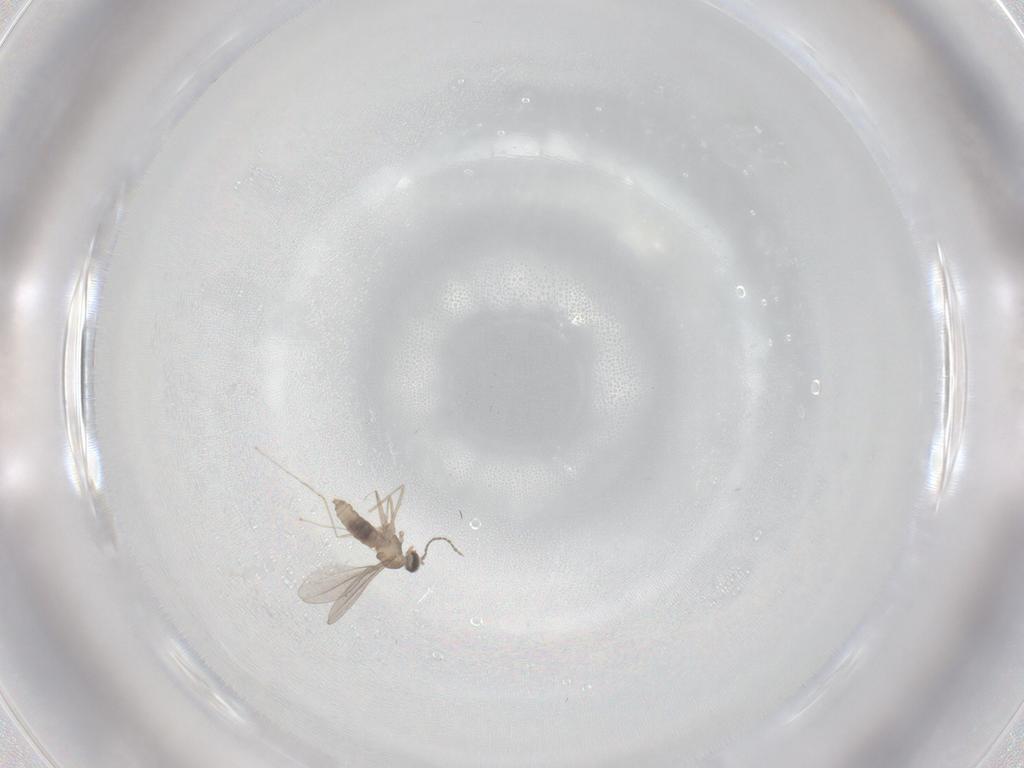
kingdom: Animalia
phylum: Arthropoda
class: Insecta
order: Diptera
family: Cecidomyiidae
